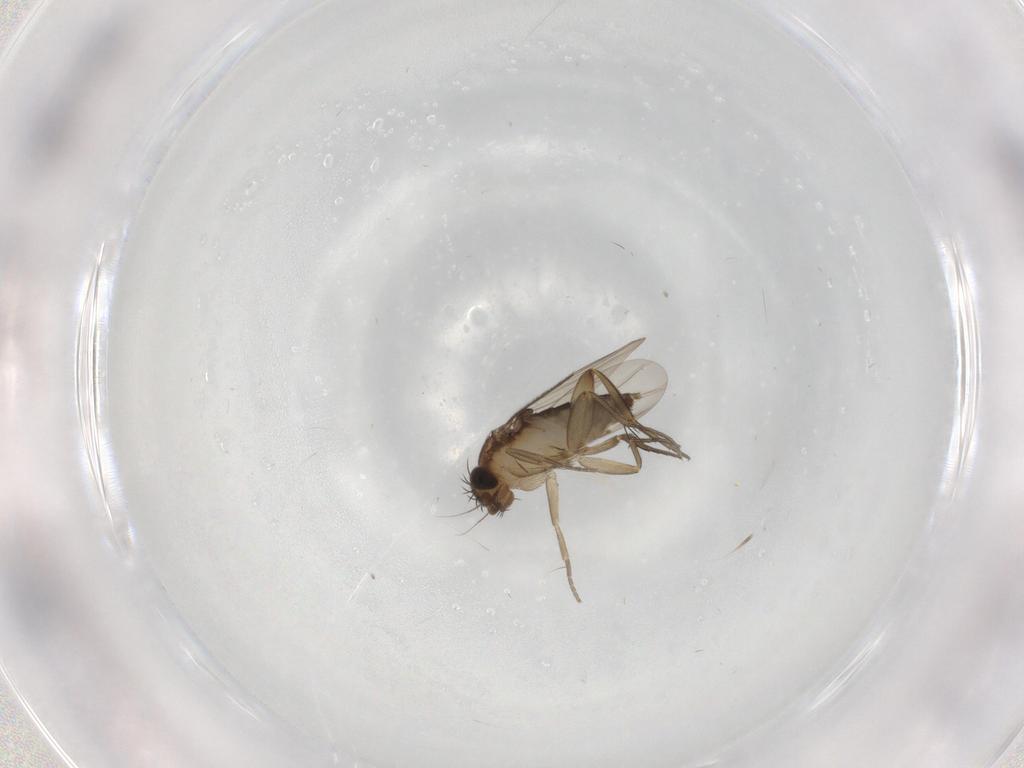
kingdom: Animalia
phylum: Arthropoda
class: Insecta
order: Diptera
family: Phoridae
